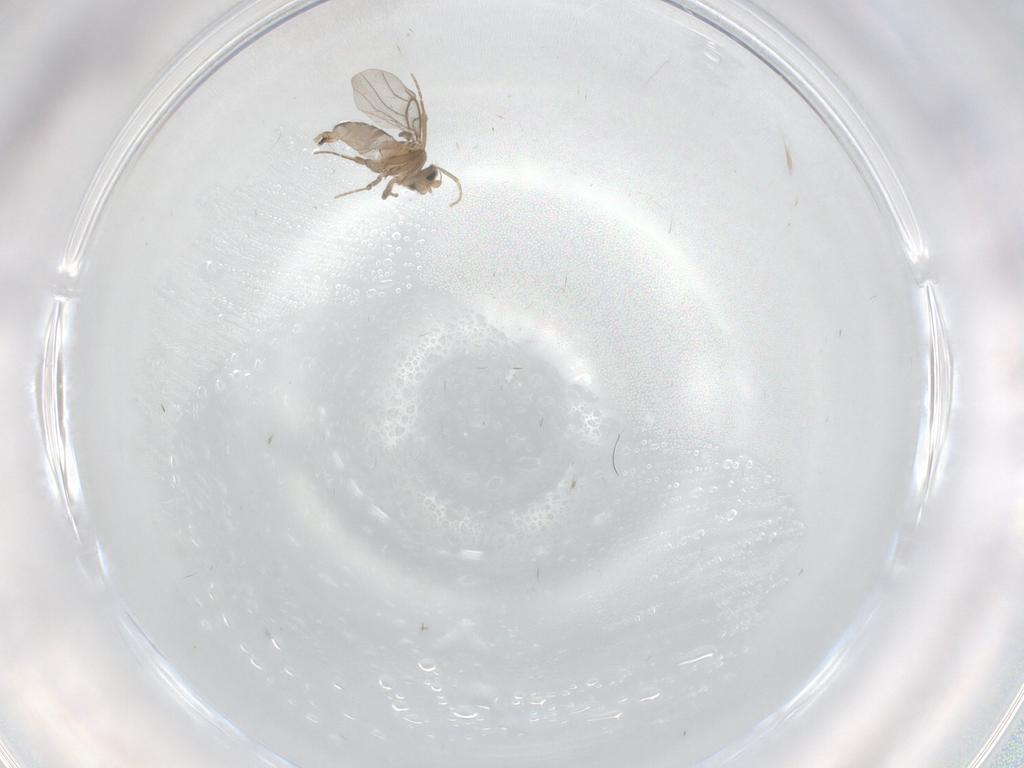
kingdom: Animalia
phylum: Arthropoda
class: Insecta
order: Diptera
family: Chironomidae
